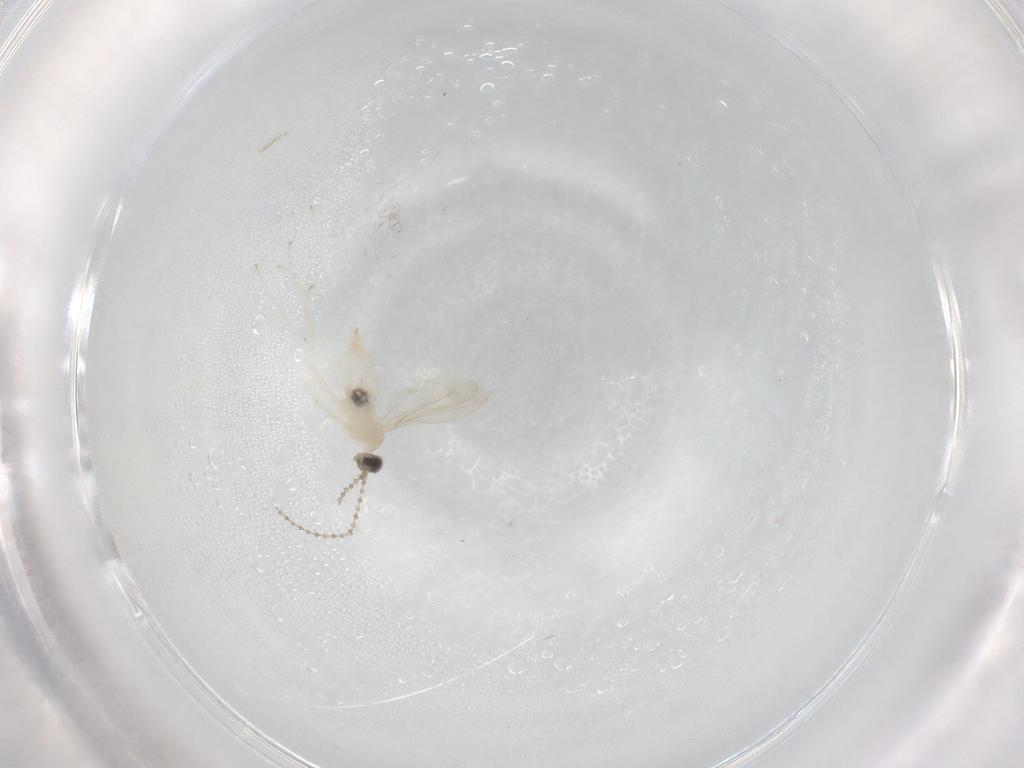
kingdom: Animalia
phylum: Arthropoda
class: Insecta
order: Diptera
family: Cecidomyiidae
